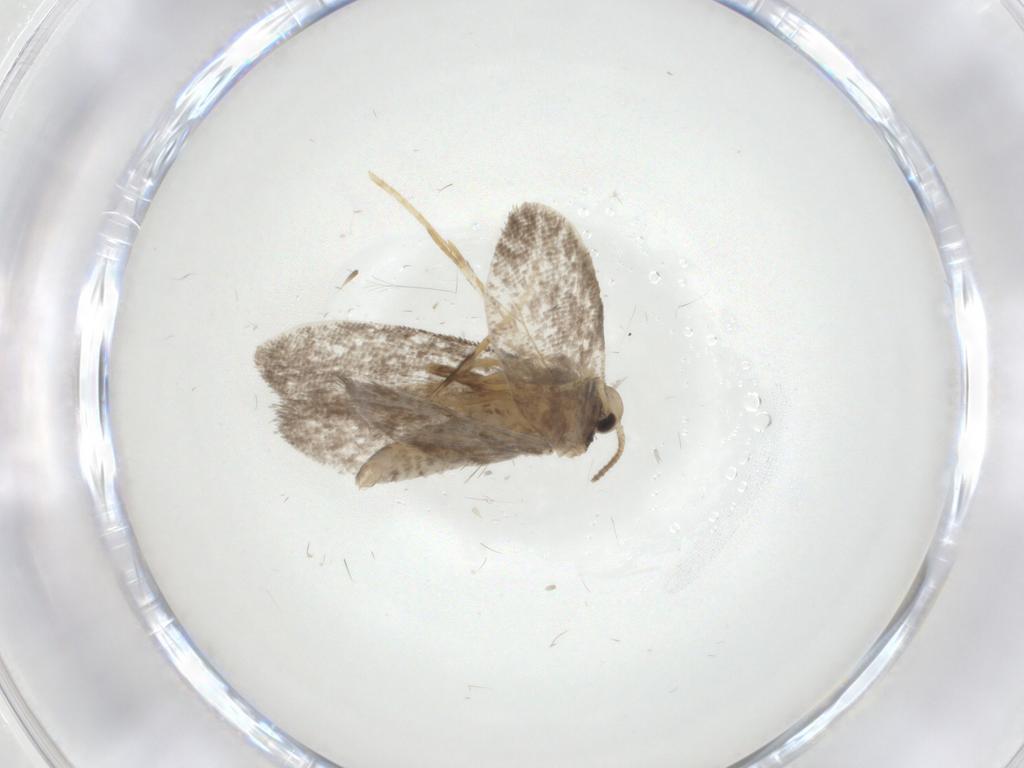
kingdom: Animalia
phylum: Arthropoda
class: Insecta
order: Lepidoptera
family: Psychidae
